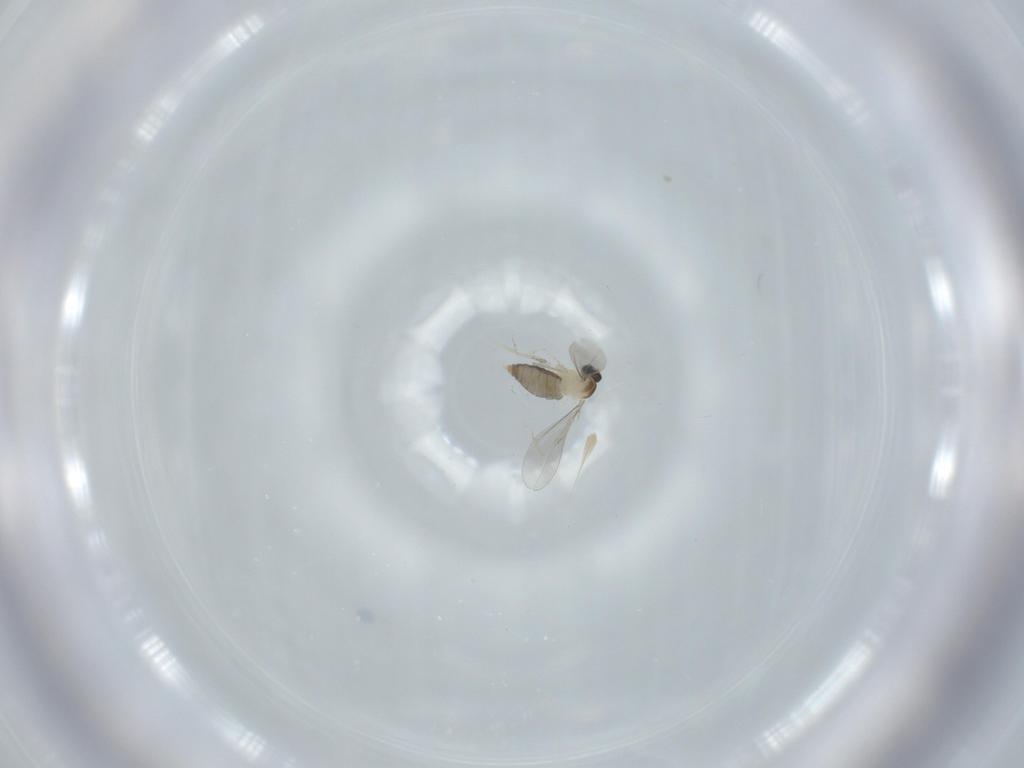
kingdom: Animalia
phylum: Arthropoda
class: Insecta
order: Diptera
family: Cecidomyiidae
